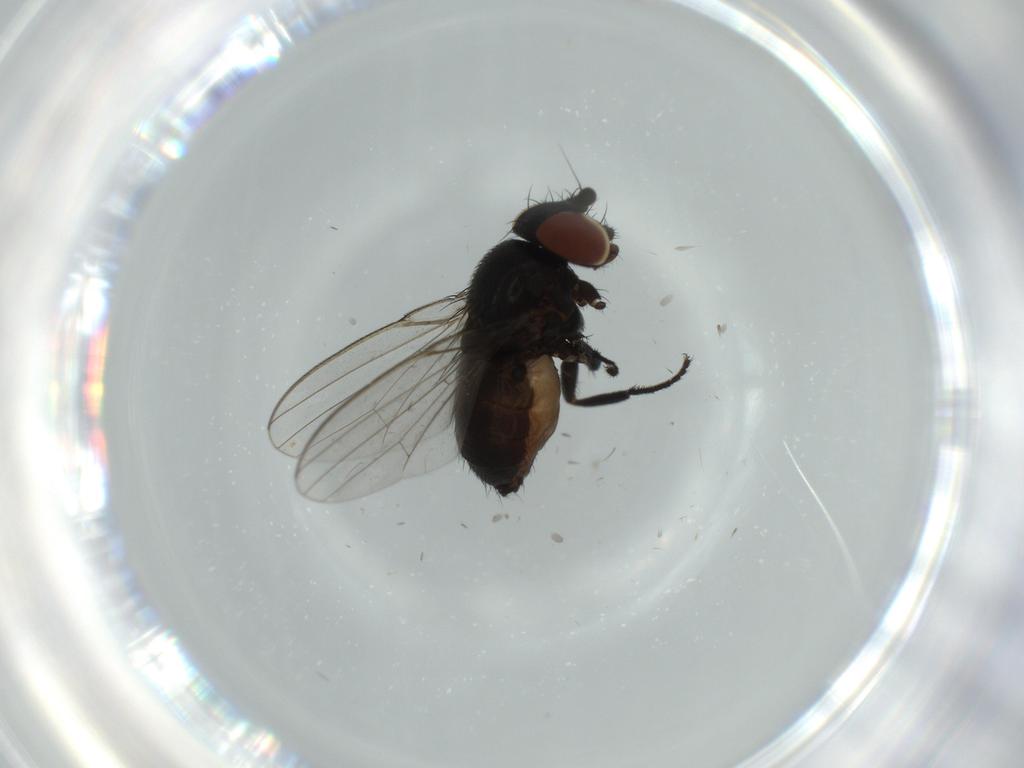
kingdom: Animalia
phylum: Arthropoda
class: Insecta
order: Diptera
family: Milichiidae
